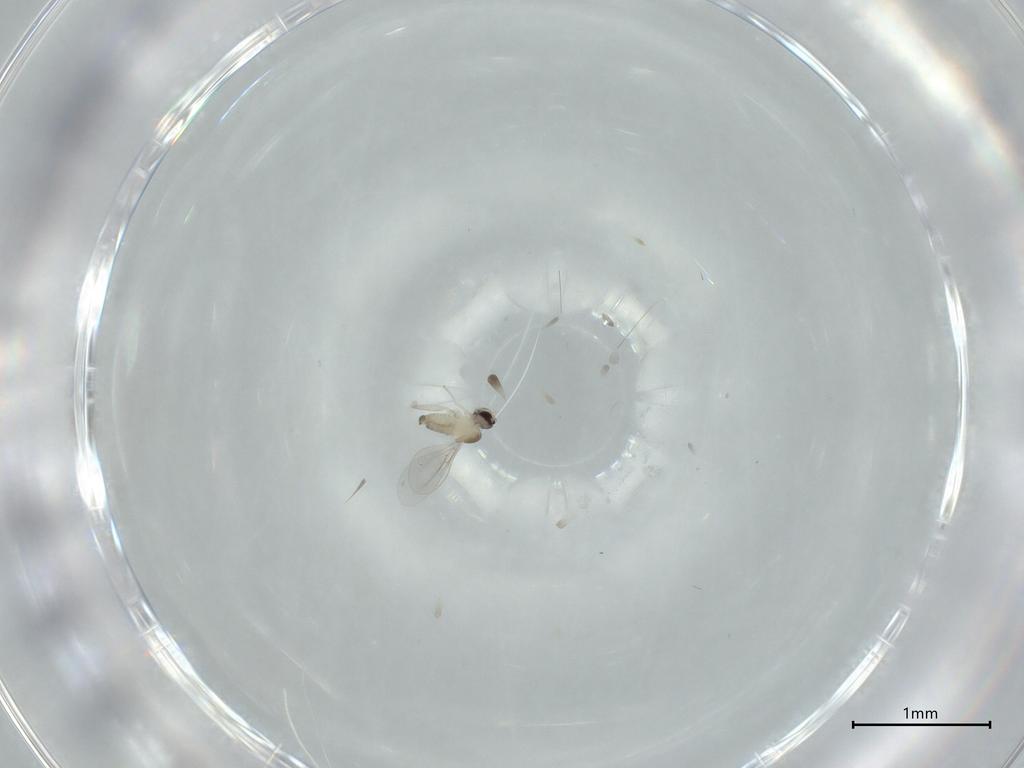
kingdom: Animalia
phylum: Arthropoda
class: Insecta
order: Diptera
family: Cecidomyiidae
